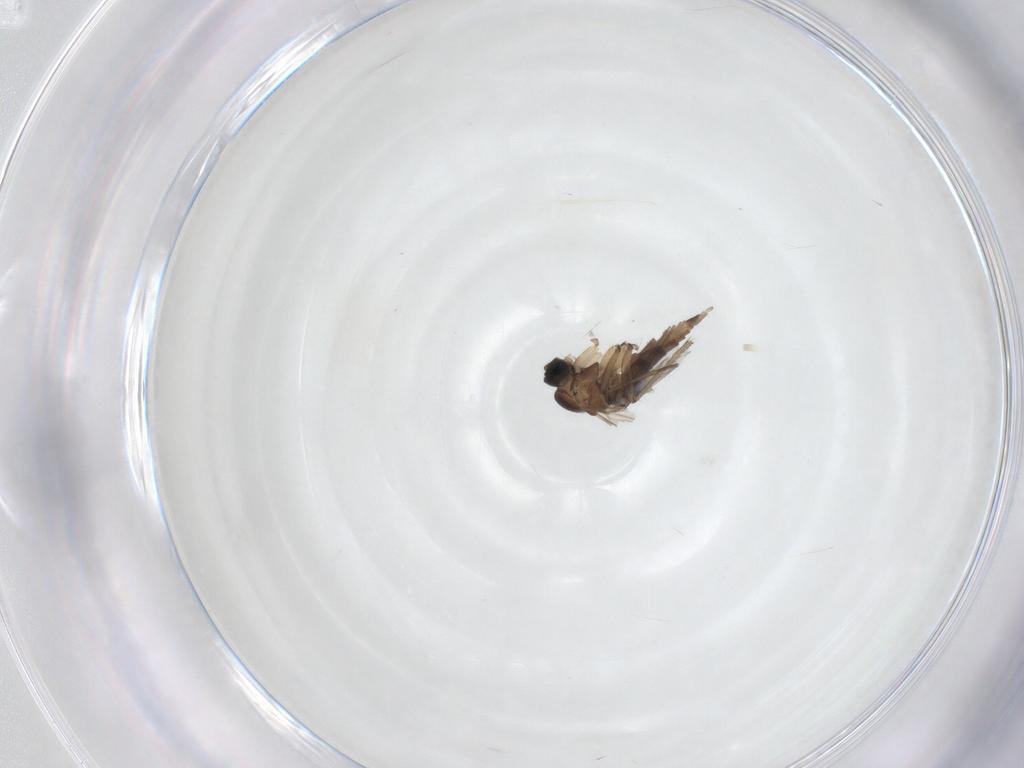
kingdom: Animalia
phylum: Arthropoda
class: Insecta
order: Diptera
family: Sciaridae
